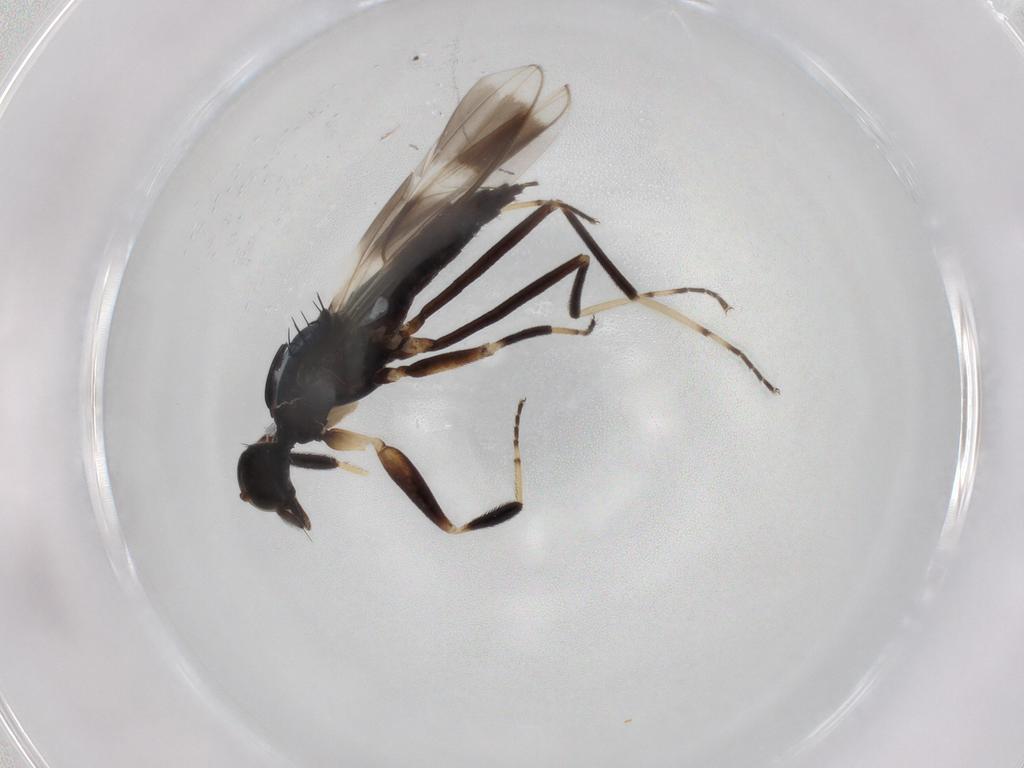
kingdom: Animalia
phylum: Arthropoda
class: Insecta
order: Diptera
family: Hybotidae
